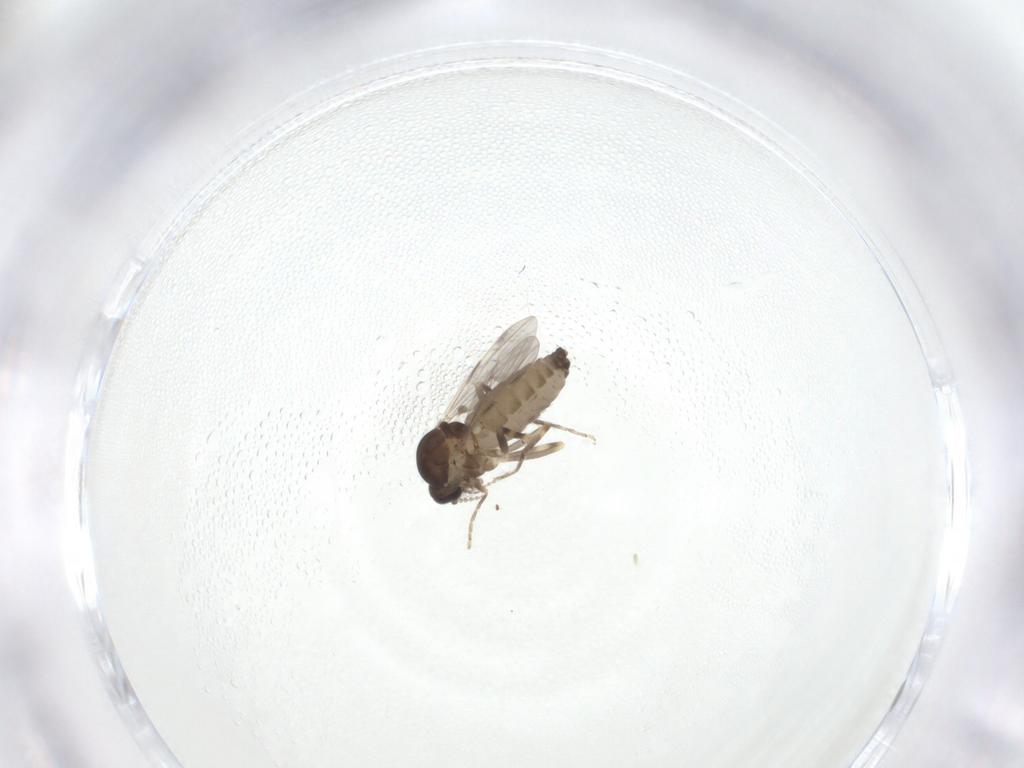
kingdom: Animalia
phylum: Arthropoda
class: Insecta
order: Diptera
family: Ceratopogonidae
